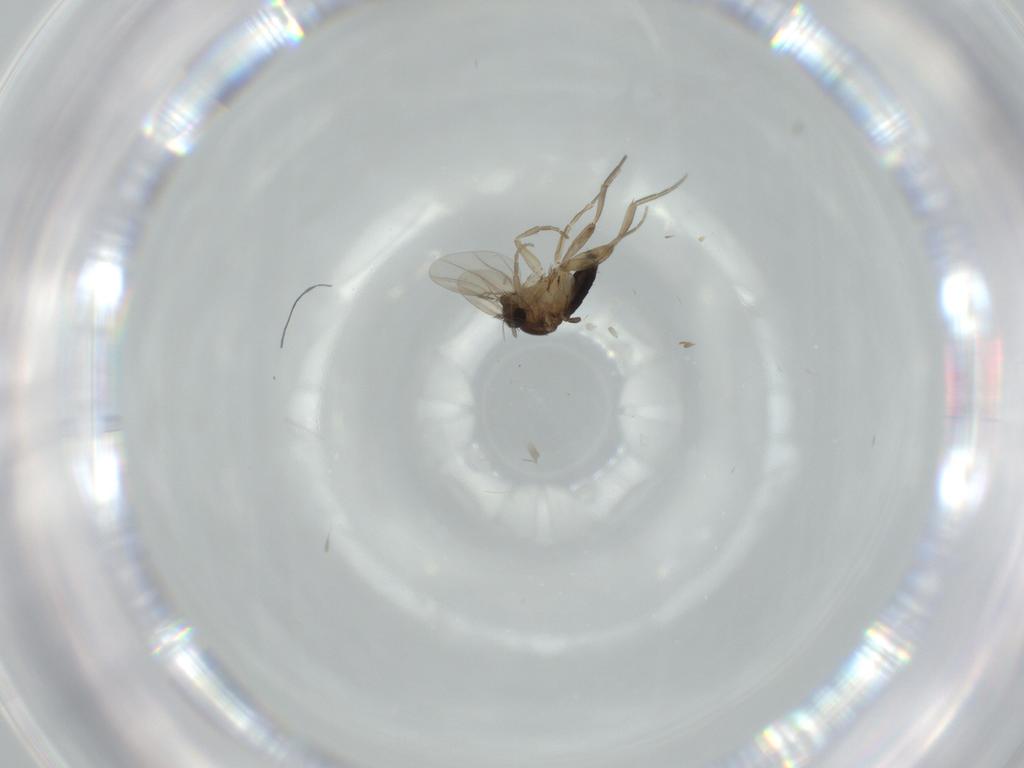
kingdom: Animalia
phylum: Arthropoda
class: Insecta
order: Diptera
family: Phoridae
